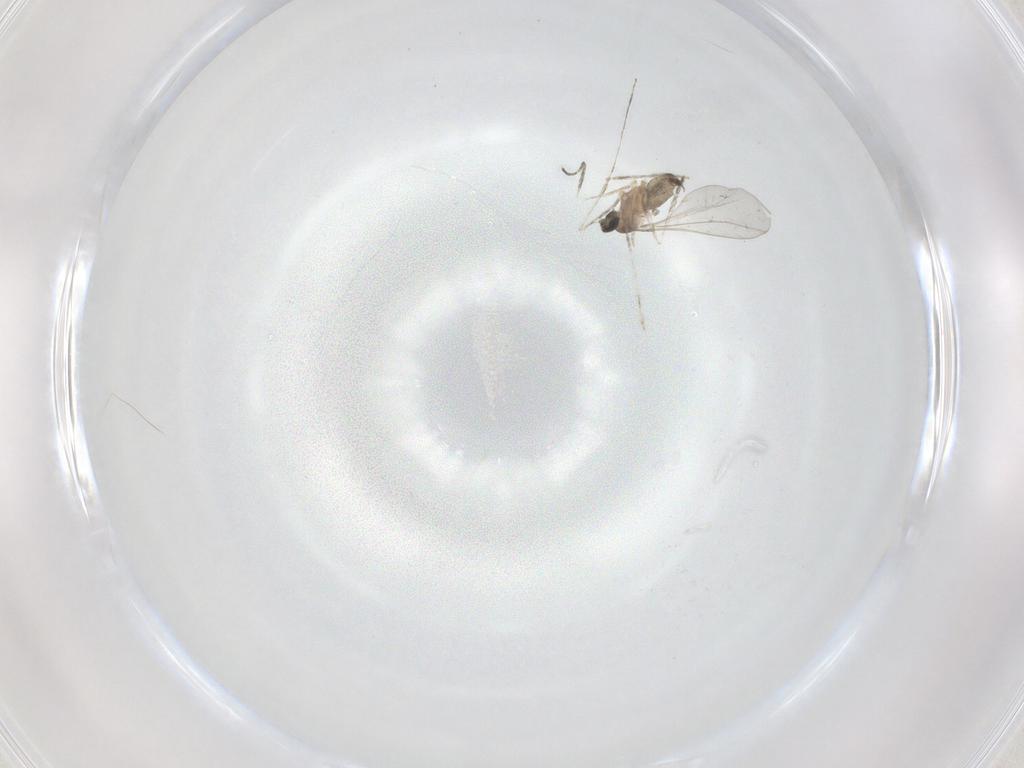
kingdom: Animalia
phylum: Arthropoda
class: Insecta
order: Diptera
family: Cecidomyiidae
